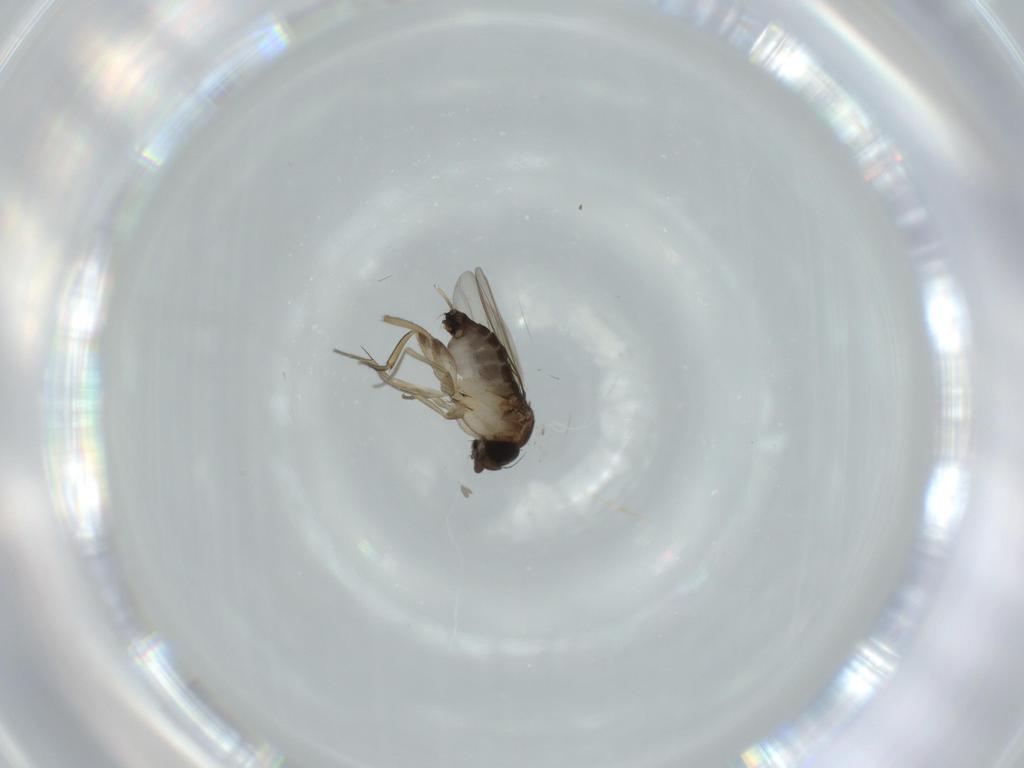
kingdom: Animalia
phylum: Arthropoda
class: Insecta
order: Diptera
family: Phoridae
